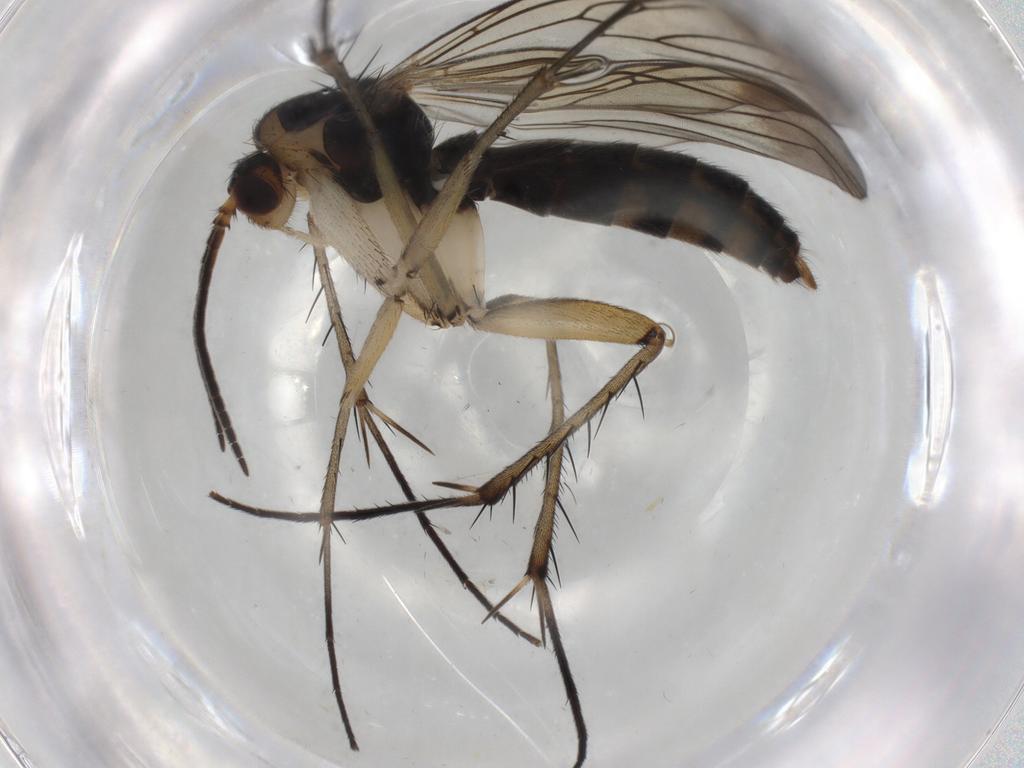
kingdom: Animalia
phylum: Arthropoda
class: Insecta
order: Diptera
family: Mycetophilidae
